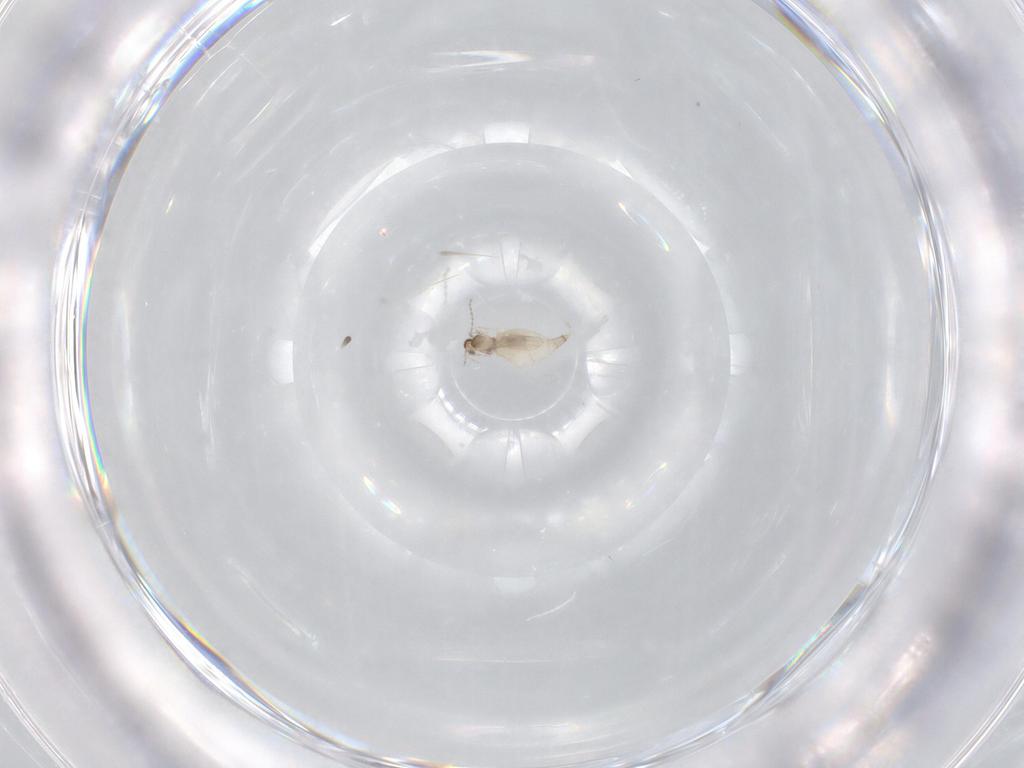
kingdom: Animalia
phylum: Arthropoda
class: Insecta
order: Diptera
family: Cecidomyiidae
